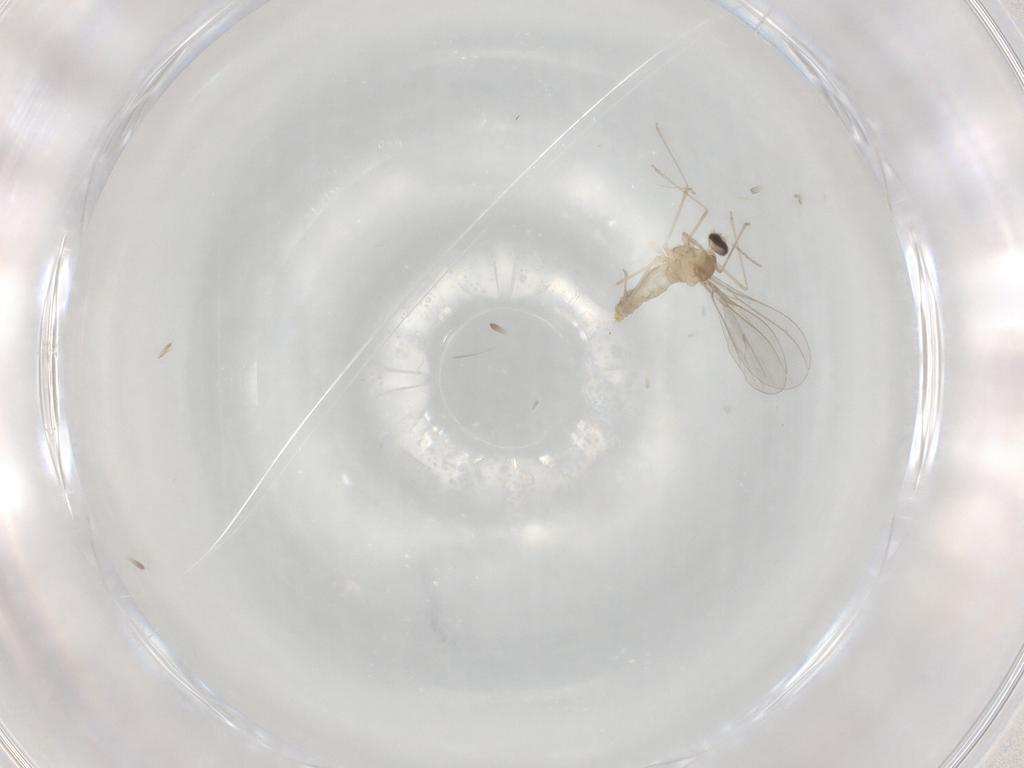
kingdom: Animalia
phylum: Arthropoda
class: Insecta
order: Diptera
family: Cecidomyiidae
